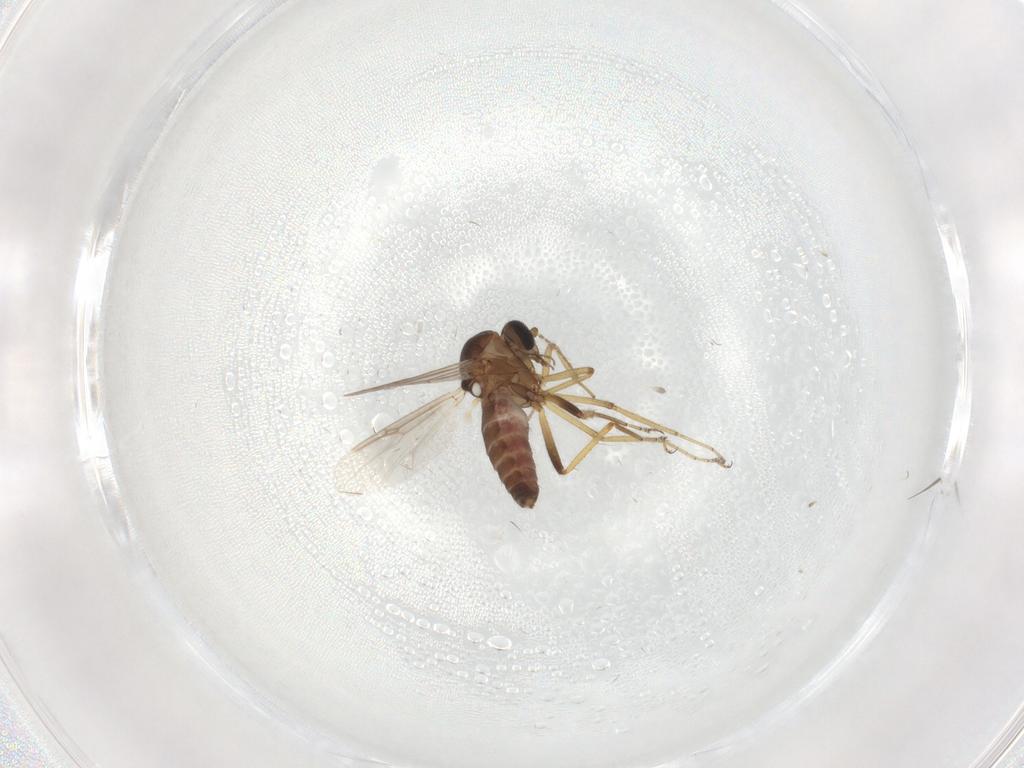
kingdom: Animalia
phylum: Arthropoda
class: Insecta
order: Diptera
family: Ceratopogonidae
